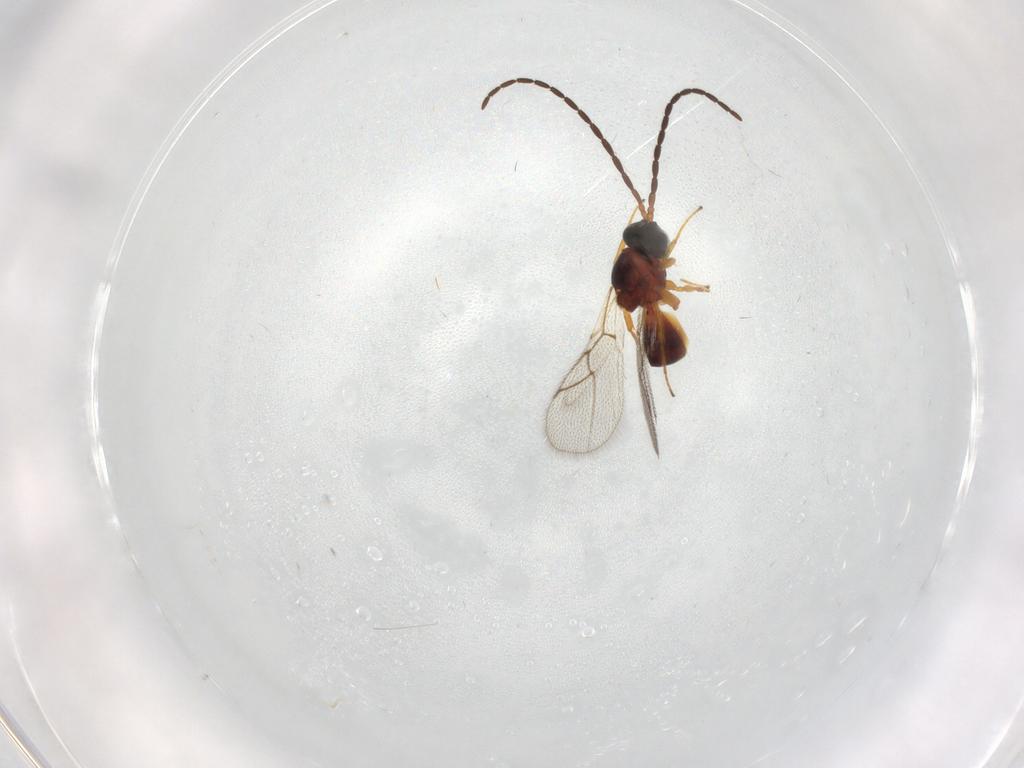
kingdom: Animalia
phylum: Arthropoda
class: Insecta
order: Hymenoptera
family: Figitidae
